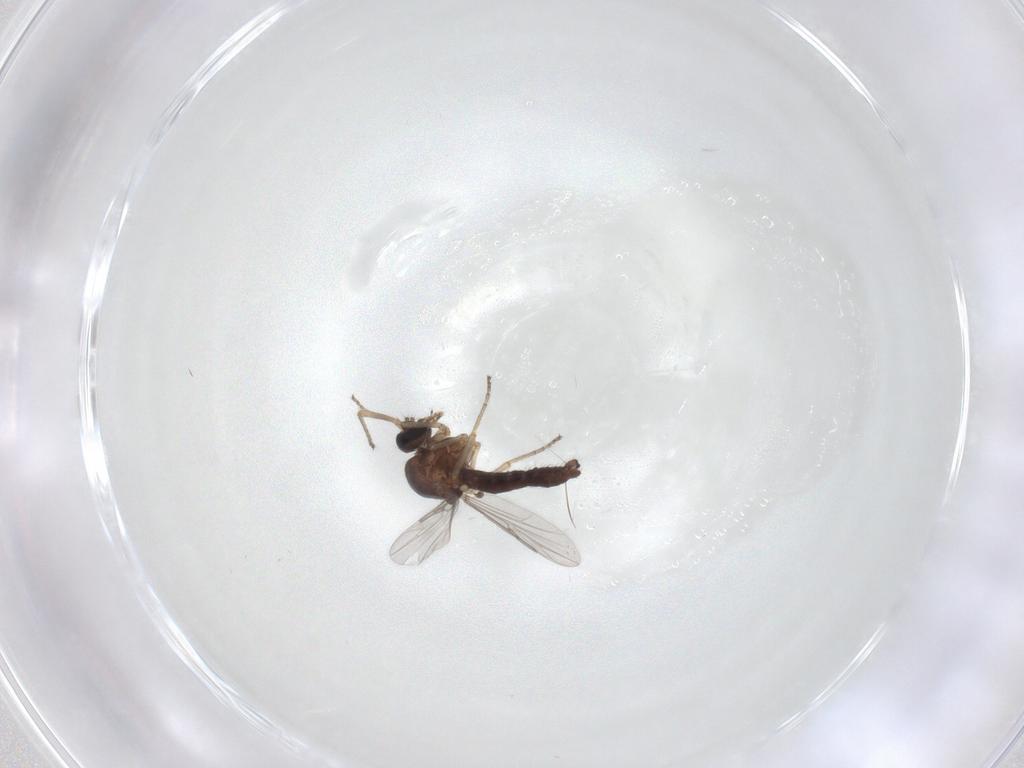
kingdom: Animalia
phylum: Arthropoda
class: Insecta
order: Diptera
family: Ceratopogonidae
